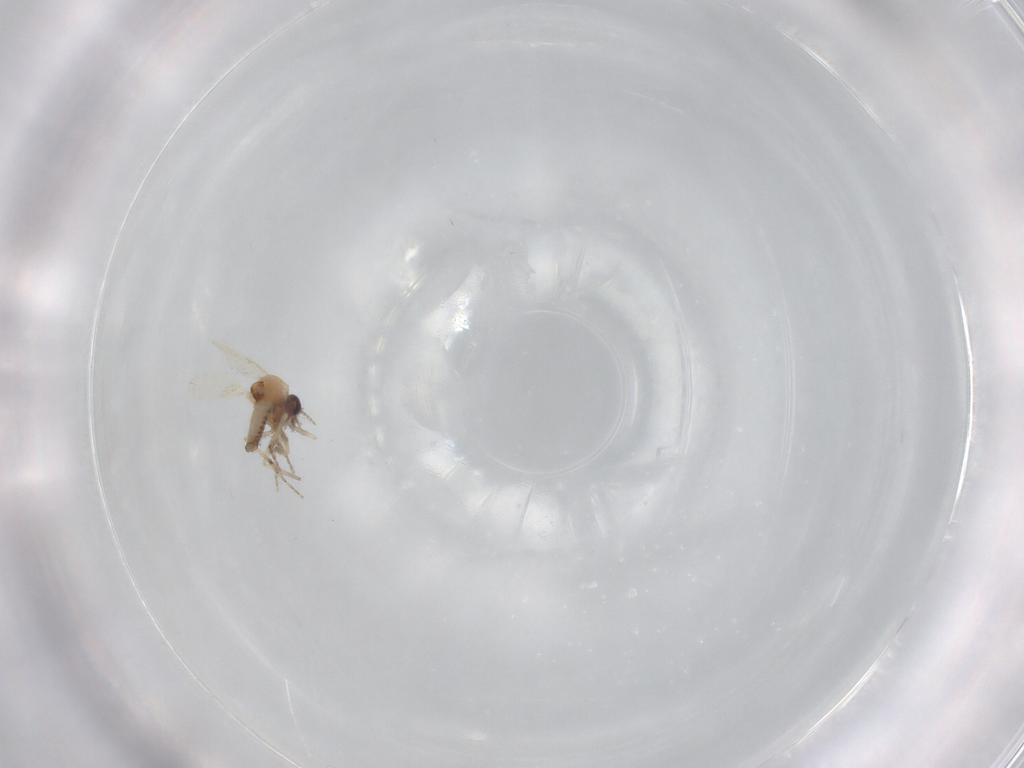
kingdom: Animalia
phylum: Arthropoda
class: Insecta
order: Diptera
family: Ceratopogonidae
